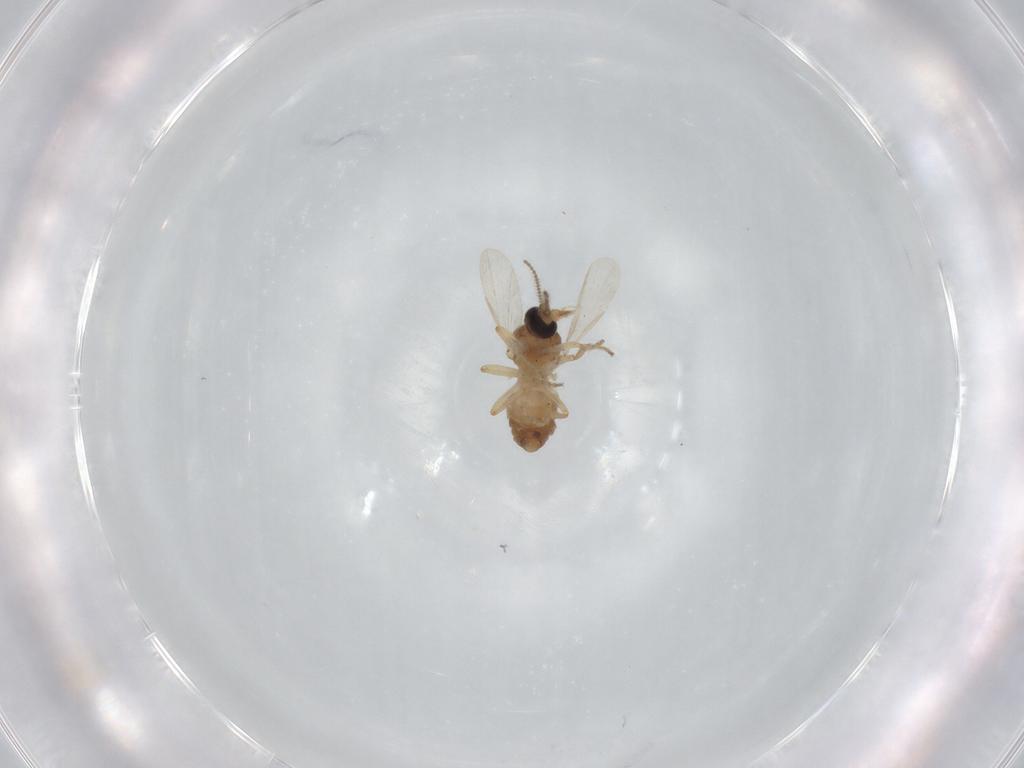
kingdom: Animalia
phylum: Arthropoda
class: Insecta
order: Diptera
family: Ceratopogonidae
